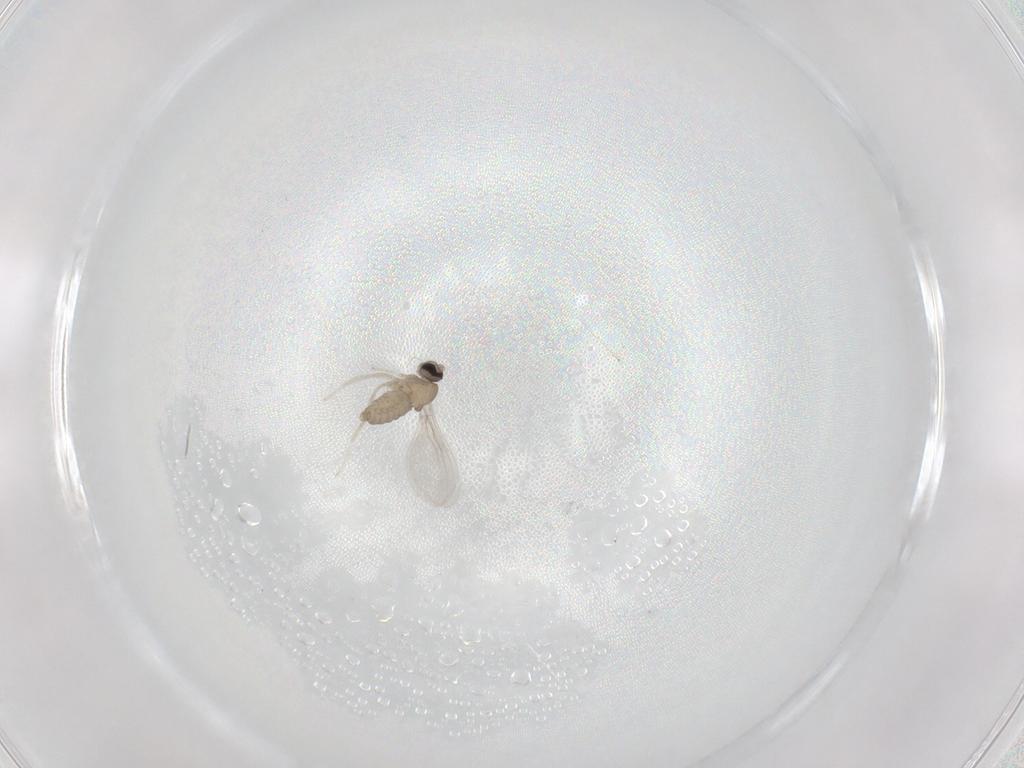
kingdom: Animalia
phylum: Arthropoda
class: Insecta
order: Diptera
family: Cecidomyiidae
